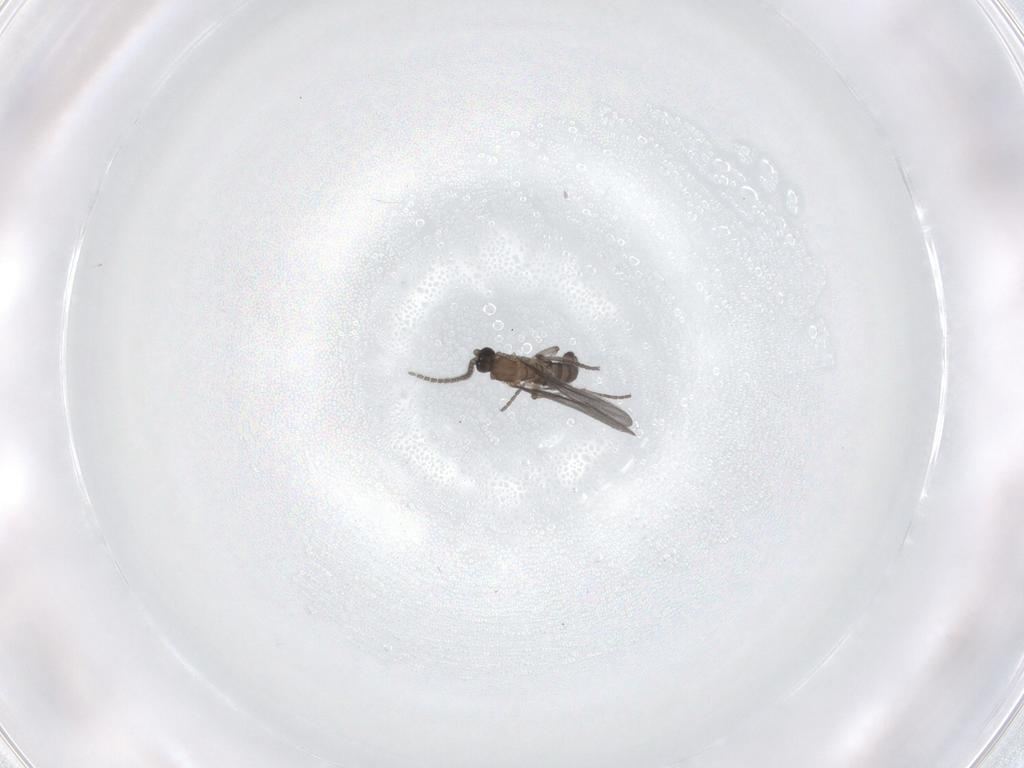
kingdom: Animalia
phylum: Arthropoda
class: Insecta
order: Diptera
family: Sciaridae
